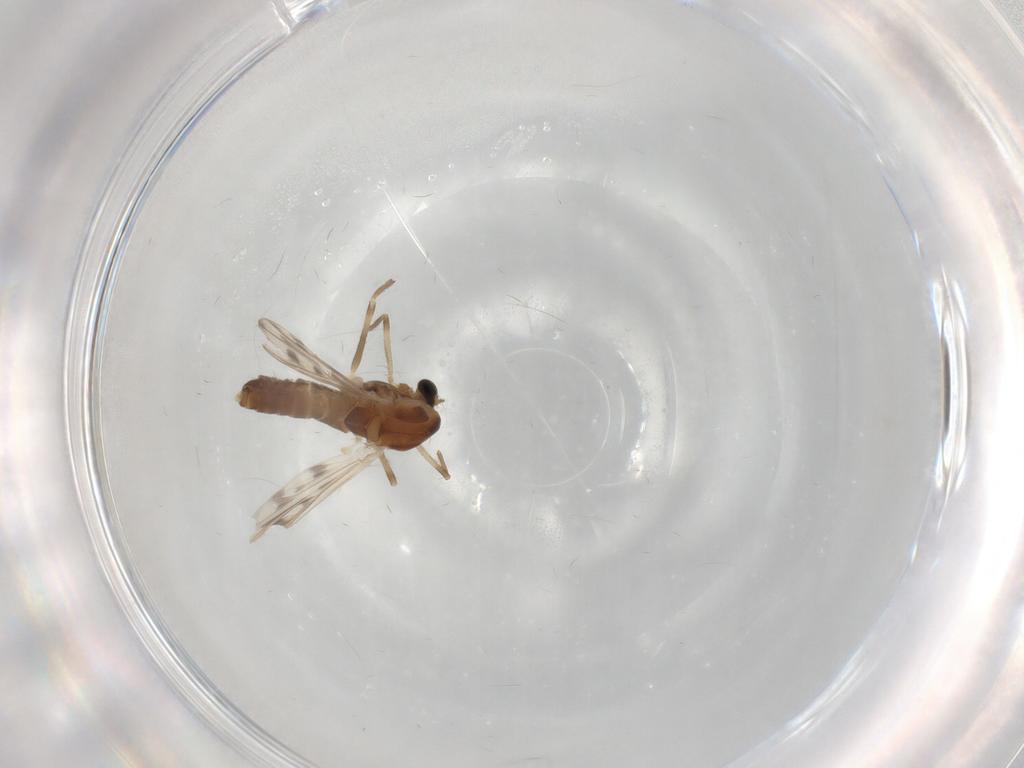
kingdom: Animalia
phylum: Arthropoda
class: Insecta
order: Diptera
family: Chironomidae
